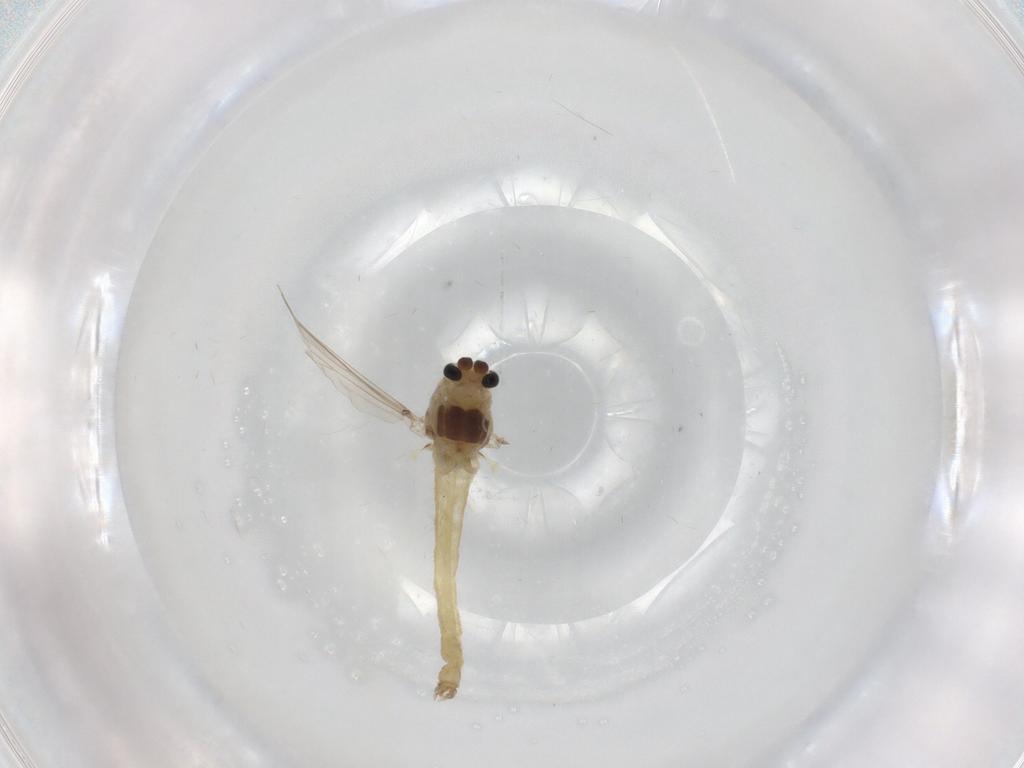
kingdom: Animalia
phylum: Arthropoda
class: Insecta
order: Diptera
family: Chironomidae
